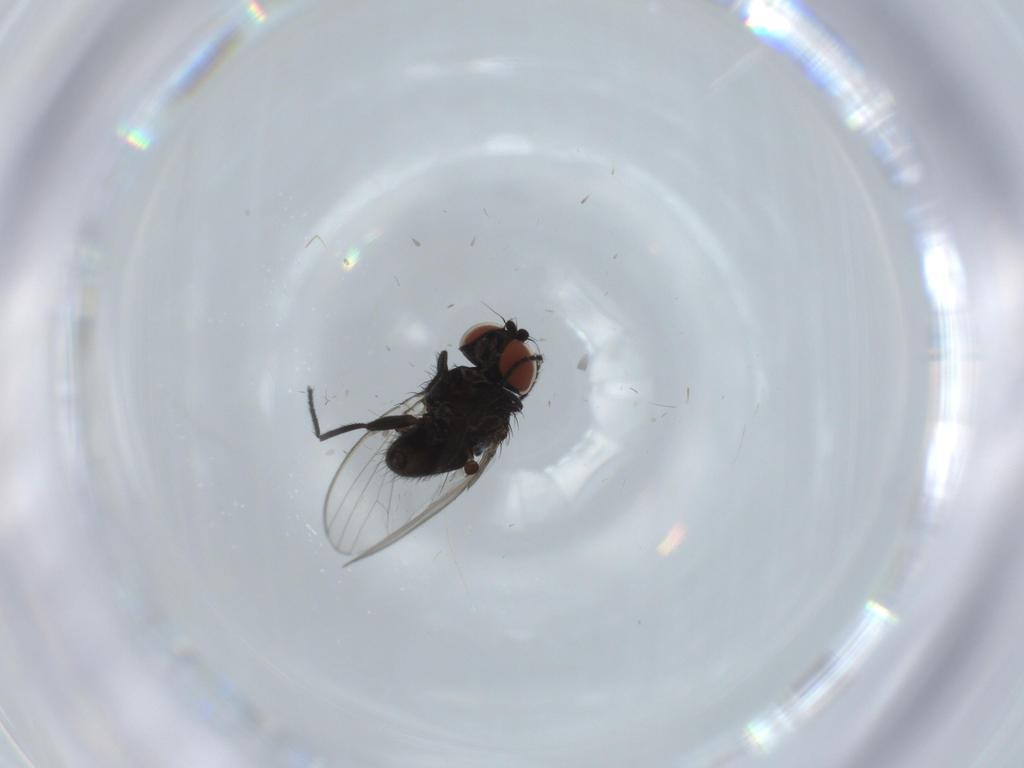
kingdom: Animalia
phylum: Arthropoda
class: Insecta
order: Diptera
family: Milichiidae
